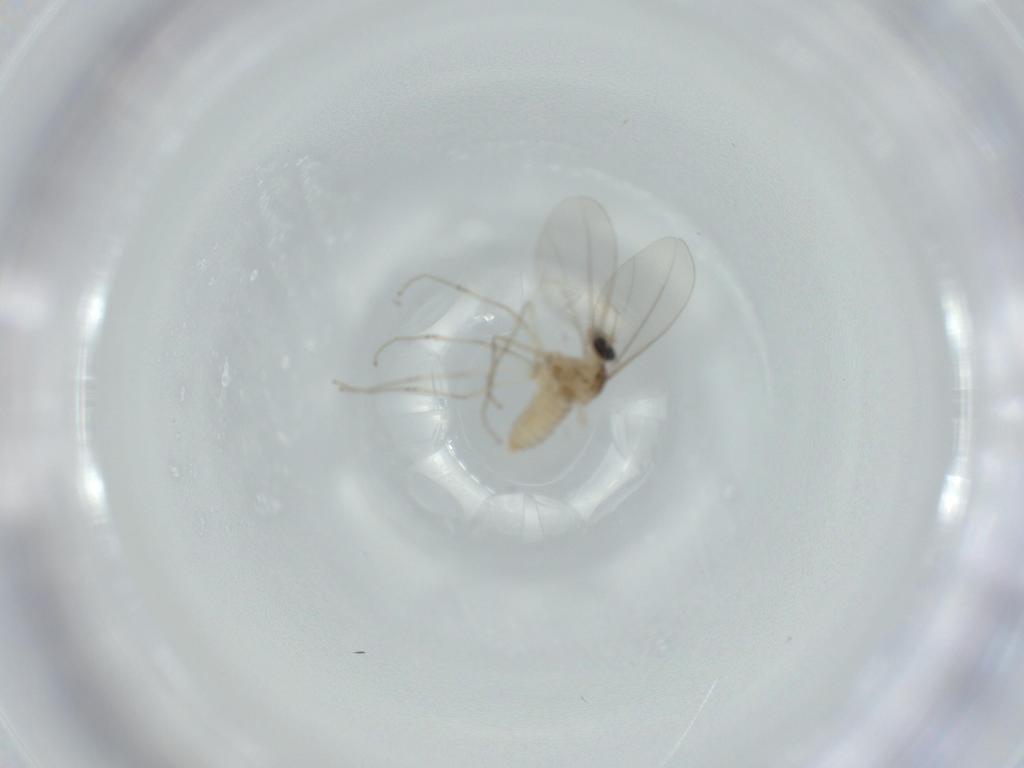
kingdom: Animalia
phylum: Arthropoda
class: Insecta
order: Diptera
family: Cecidomyiidae
